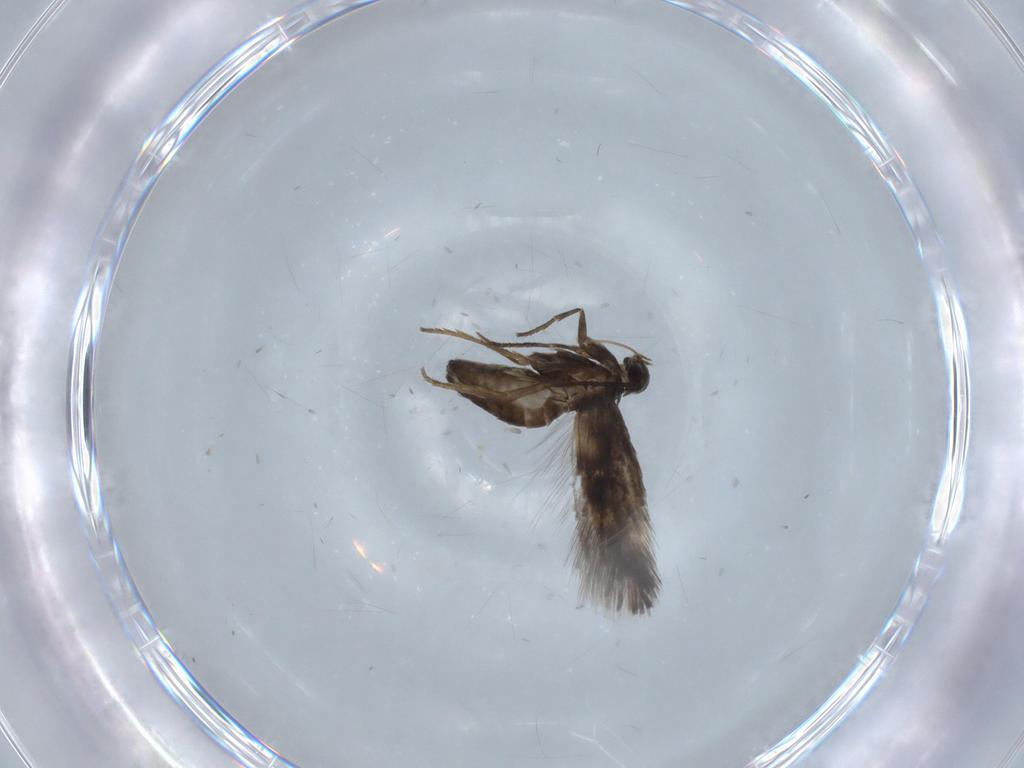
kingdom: Animalia
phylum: Arthropoda
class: Insecta
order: Lepidoptera
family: Heliozelidae
